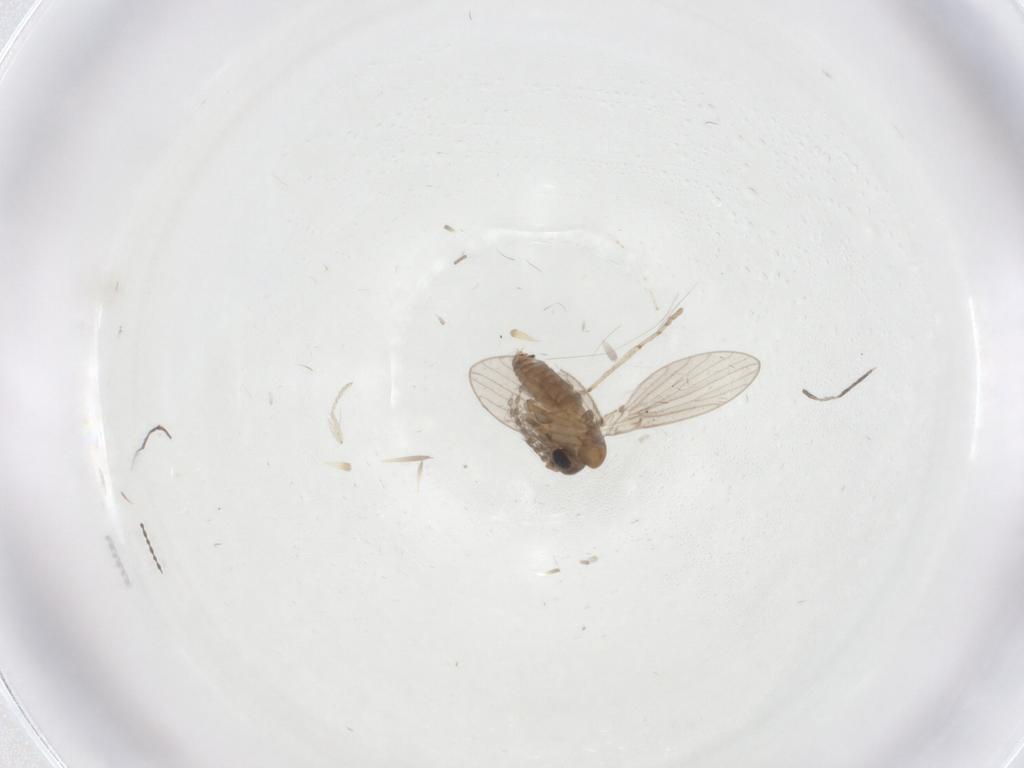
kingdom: Animalia
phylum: Arthropoda
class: Insecta
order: Diptera
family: Cecidomyiidae
